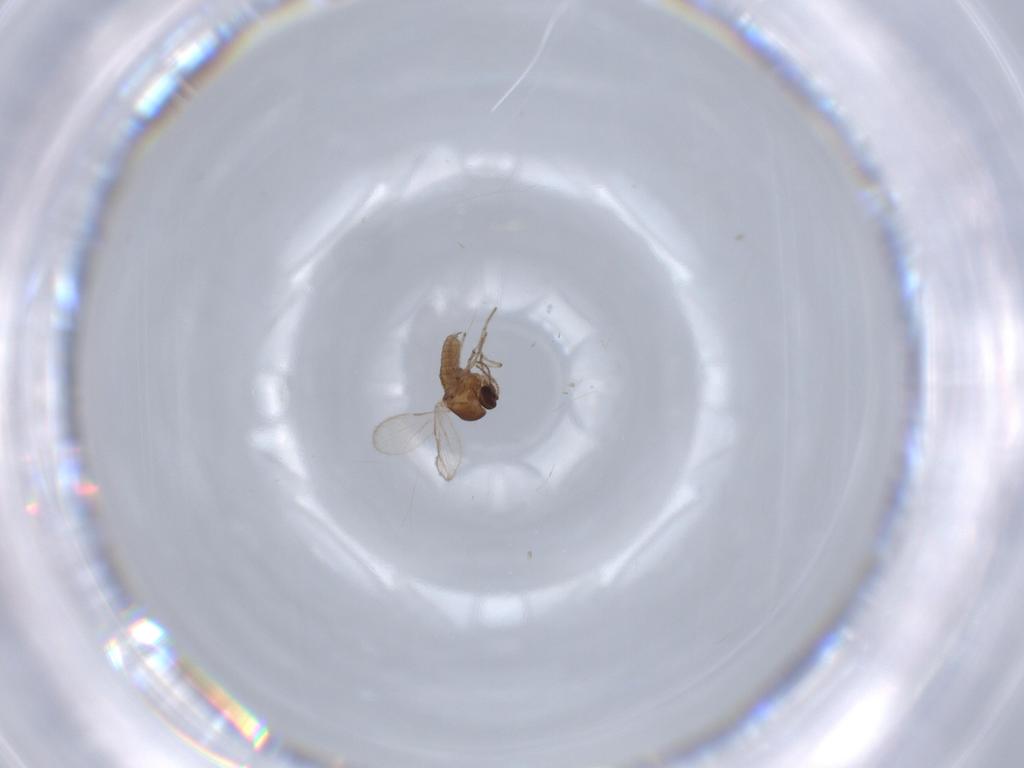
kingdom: Animalia
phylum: Arthropoda
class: Insecta
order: Diptera
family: Ceratopogonidae
